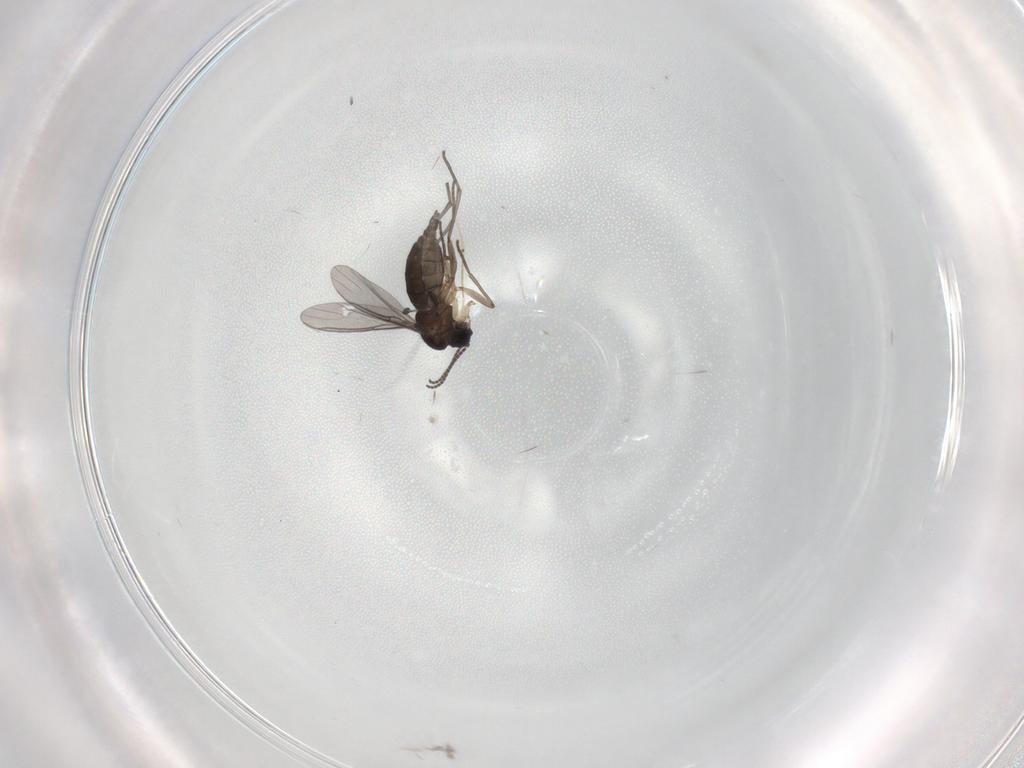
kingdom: Animalia
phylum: Arthropoda
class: Insecta
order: Diptera
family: Sciaridae
